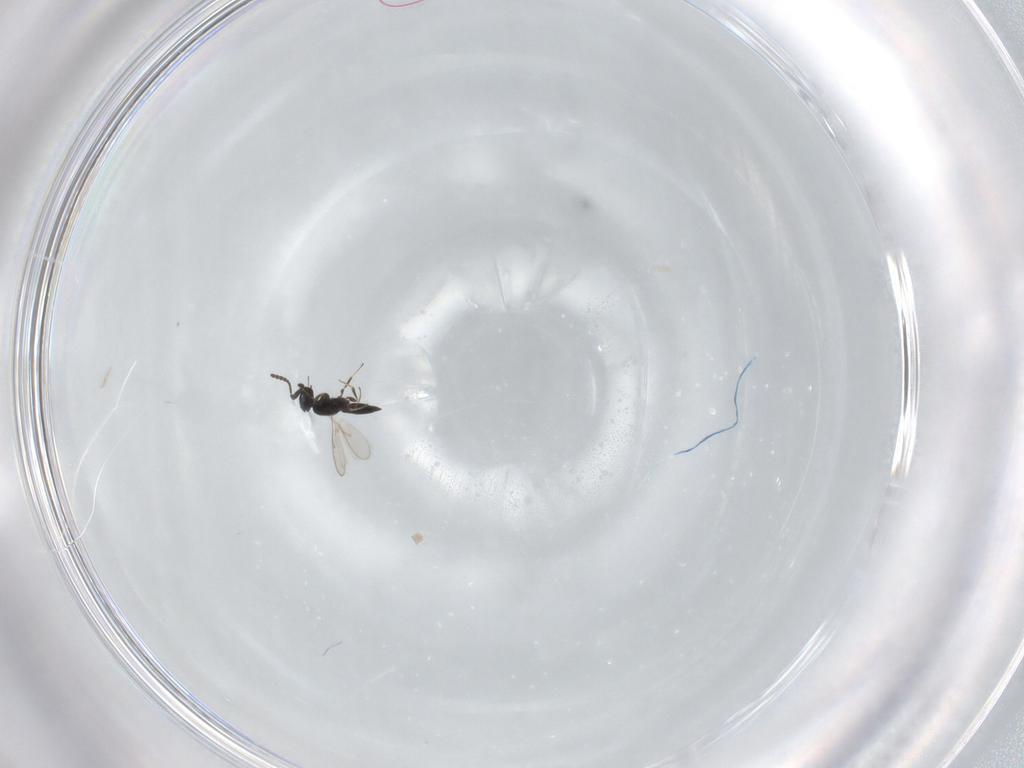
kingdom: Animalia
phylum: Arthropoda
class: Insecta
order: Hymenoptera
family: Scelionidae
